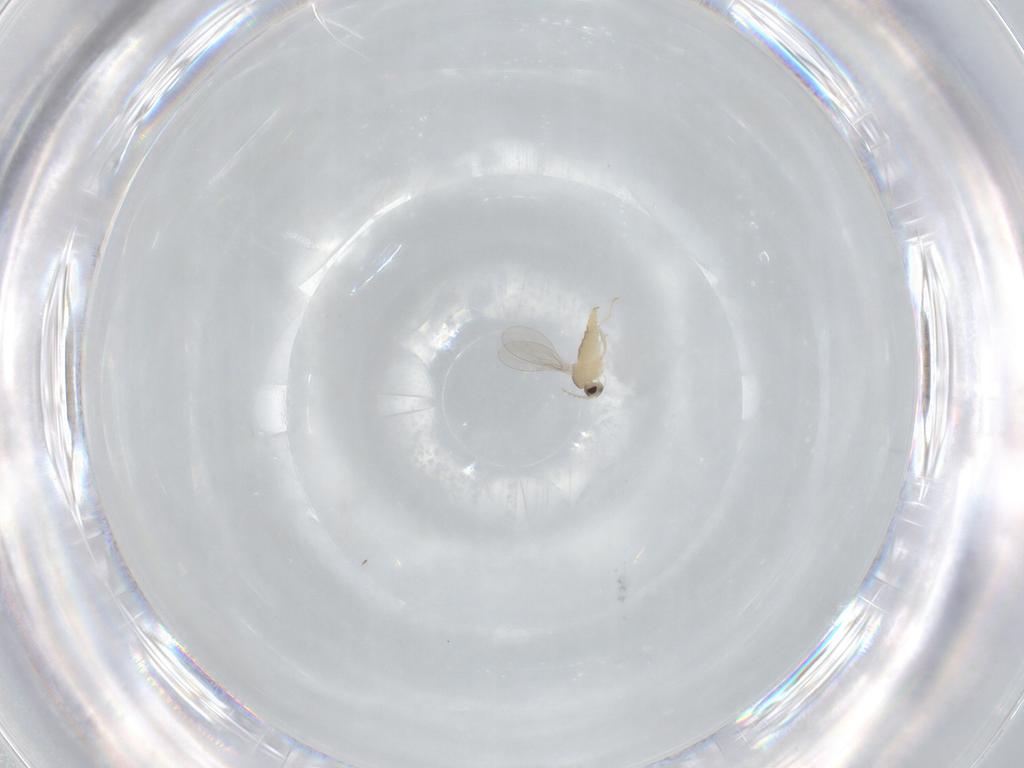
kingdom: Animalia
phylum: Arthropoda
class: Insecta
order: Diptera
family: Cecidomyiidae
